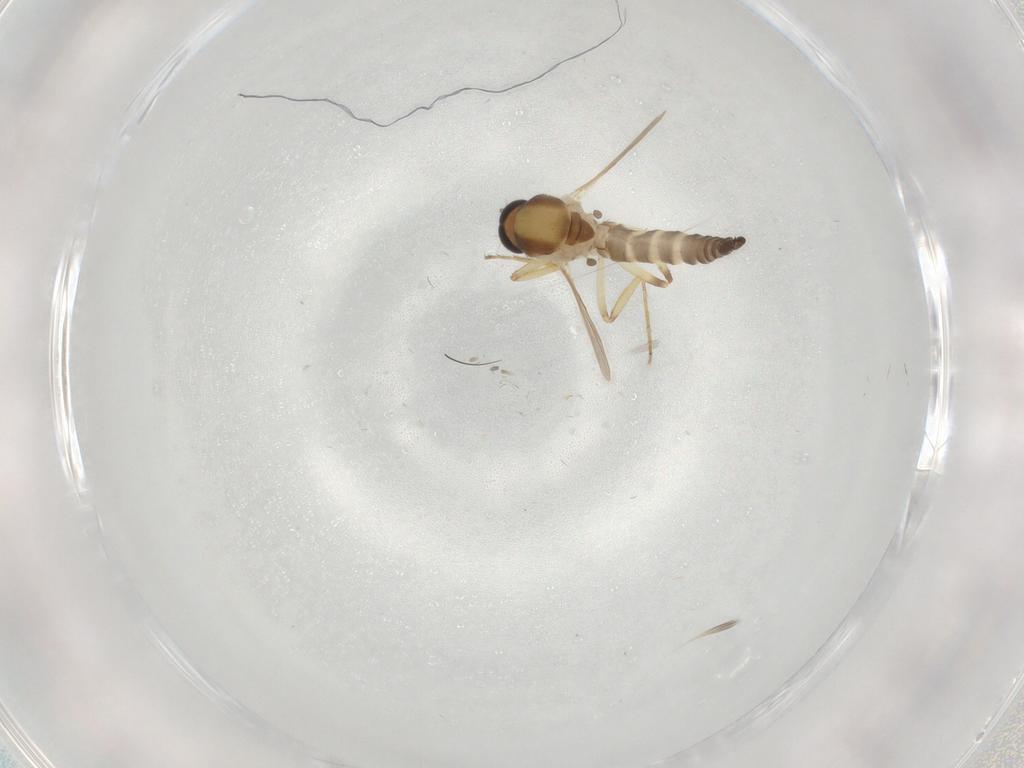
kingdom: Animalia
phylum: Arthropoda
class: Insecta
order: Diptera
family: Ceratopogonidae
